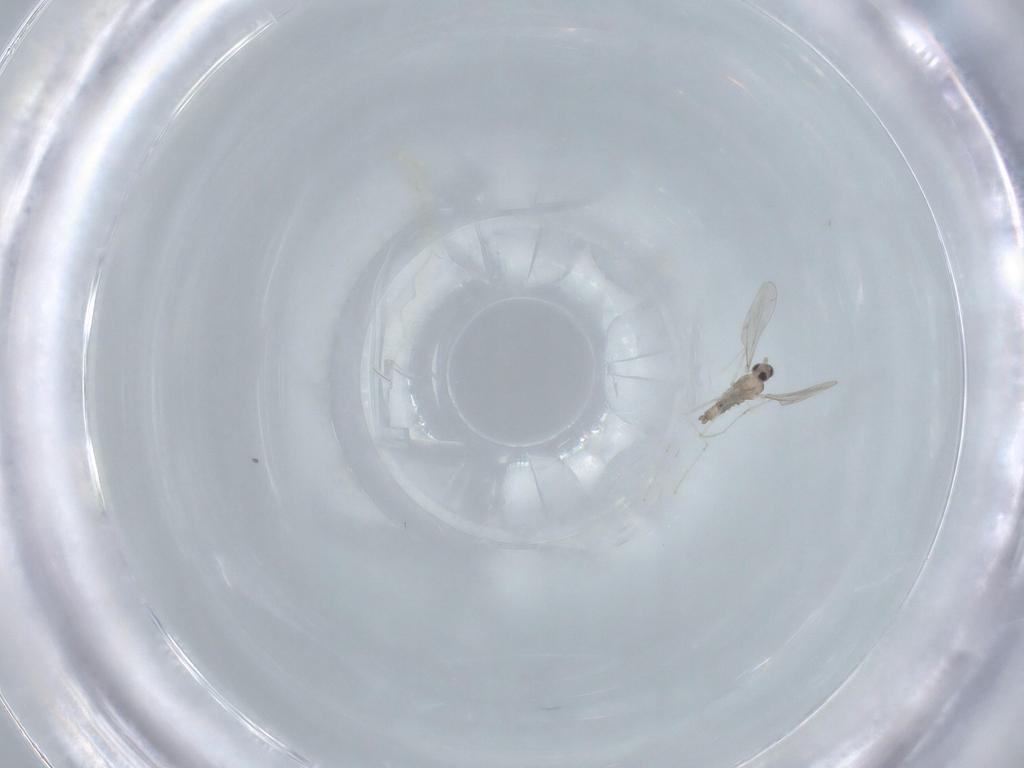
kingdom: Animalia
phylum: Arthropoda
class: Insecta
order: Diptera
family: Cecidomyiidae
